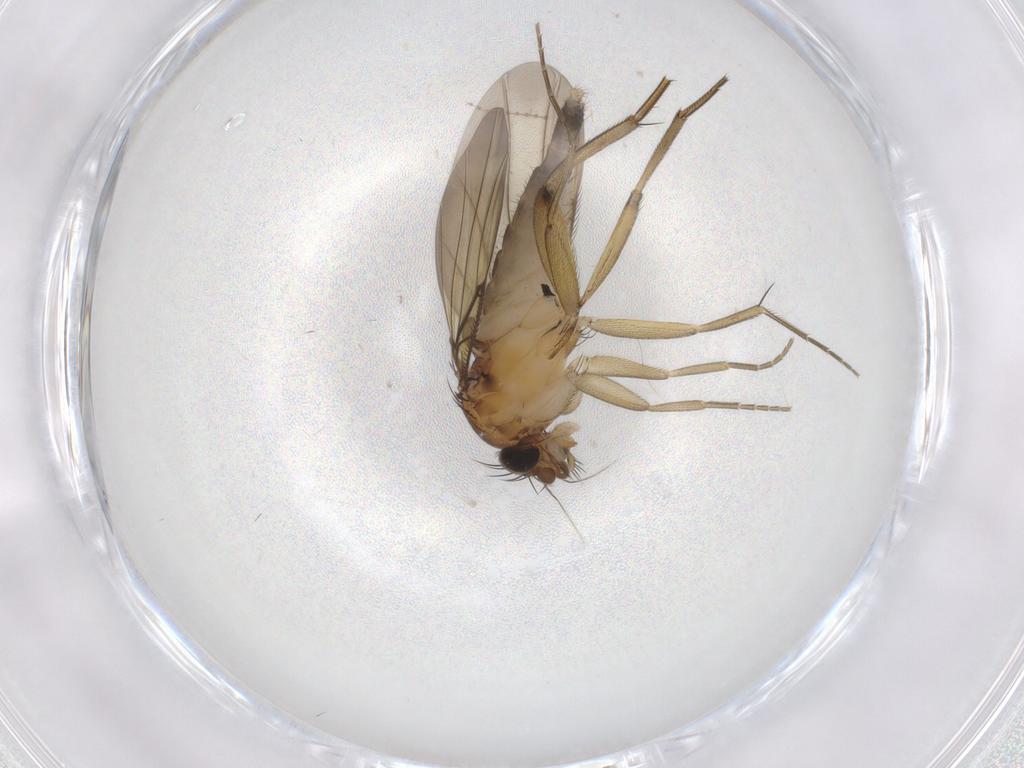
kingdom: Animalia
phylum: Arthropoda
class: Insecta
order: Diptera
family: Phoridae
